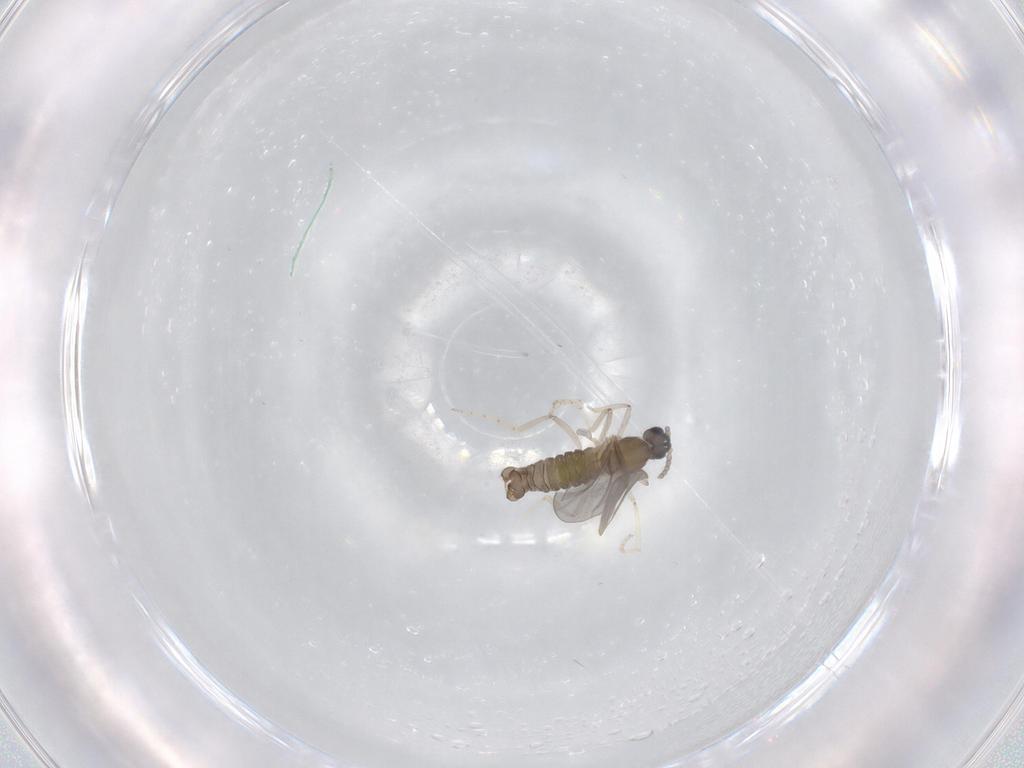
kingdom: Animalia
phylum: Arthropoda
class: Insecta
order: Diptera
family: Cecidomyiidae
